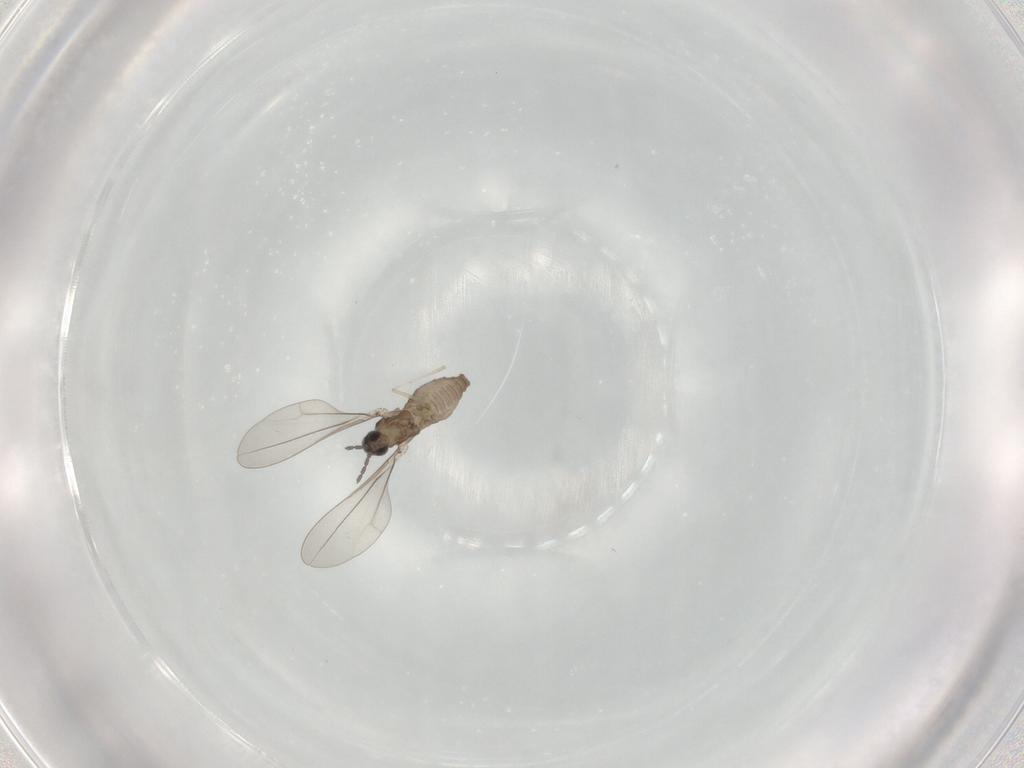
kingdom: Animalia
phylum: Arthropoda
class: Insecta
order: Diptera
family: Cecidomyiidae
